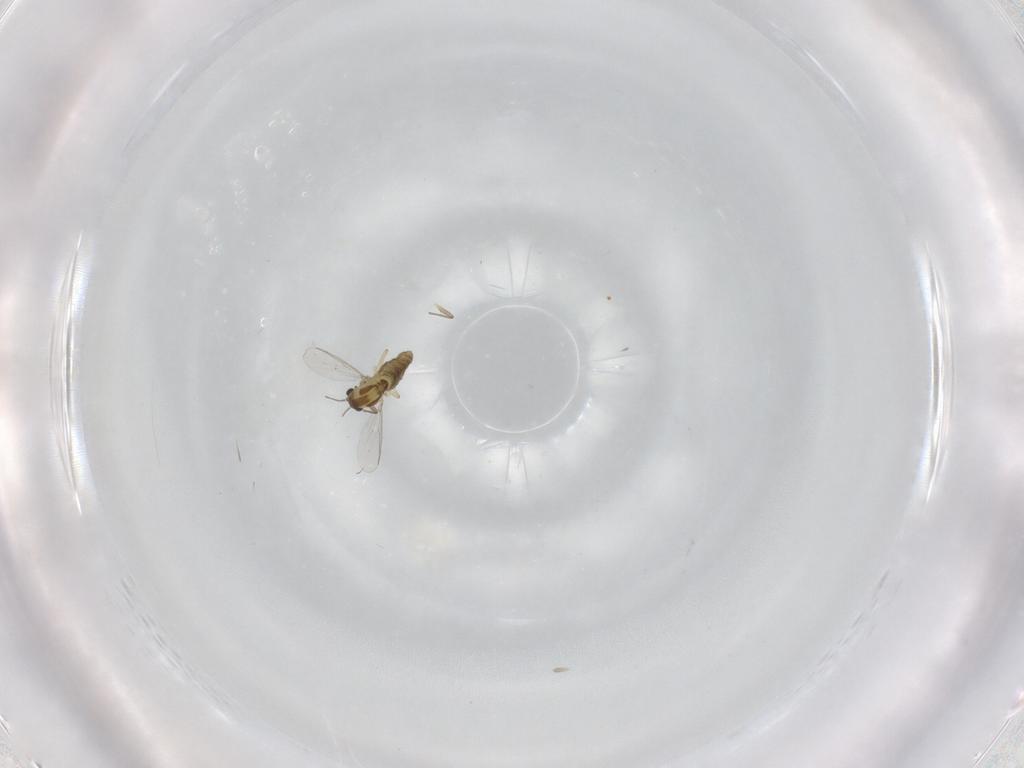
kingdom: Animalia
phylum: Arthropoda
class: Insecta
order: Diptera
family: Chironomidae
